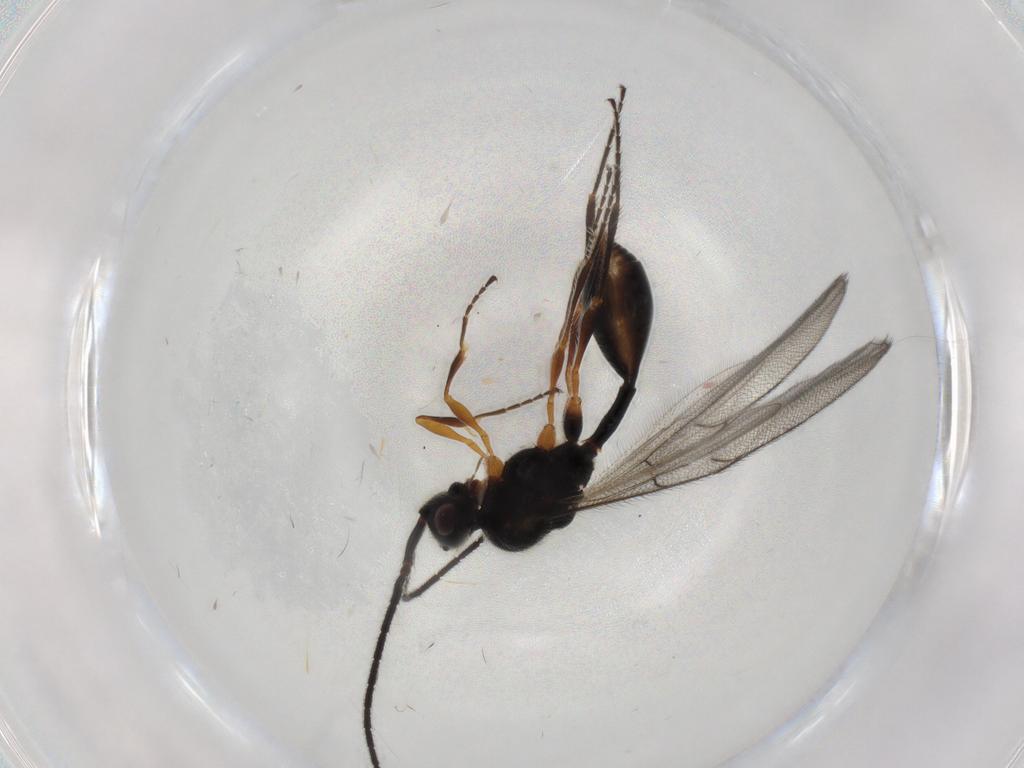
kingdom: Animalia
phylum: Arthropoda
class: Insecta
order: Hymenoptera
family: Diapriidae
